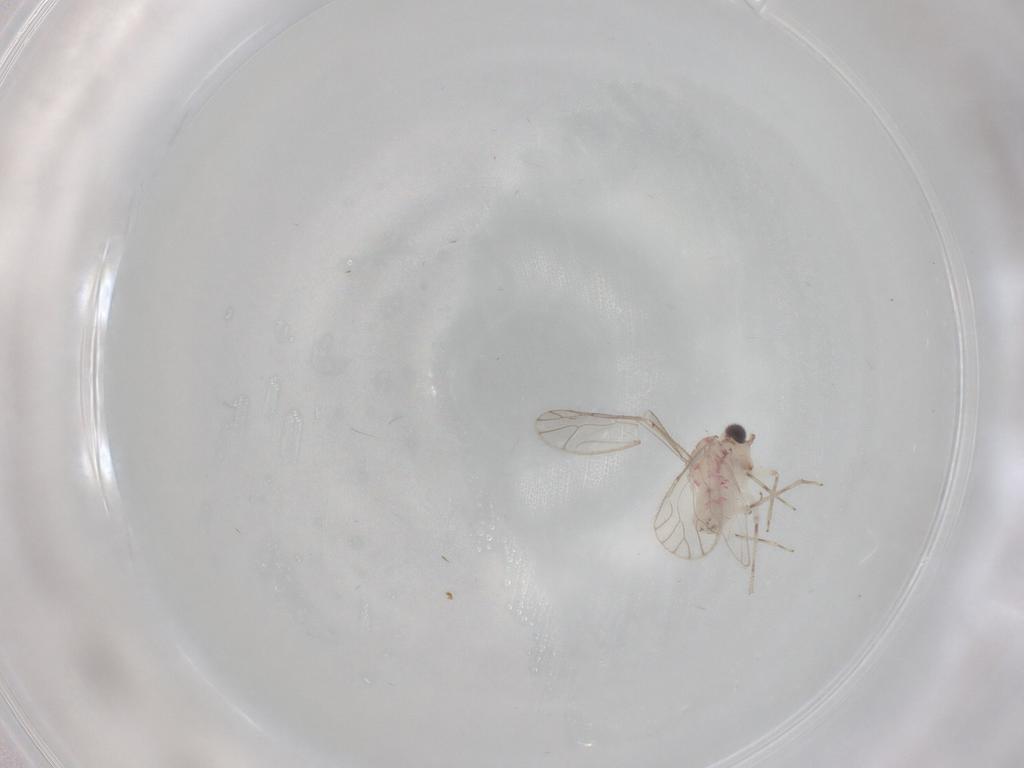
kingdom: Animalia
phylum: Arthropoda
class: Insecta
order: Psocodea
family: Caeciliusidae
